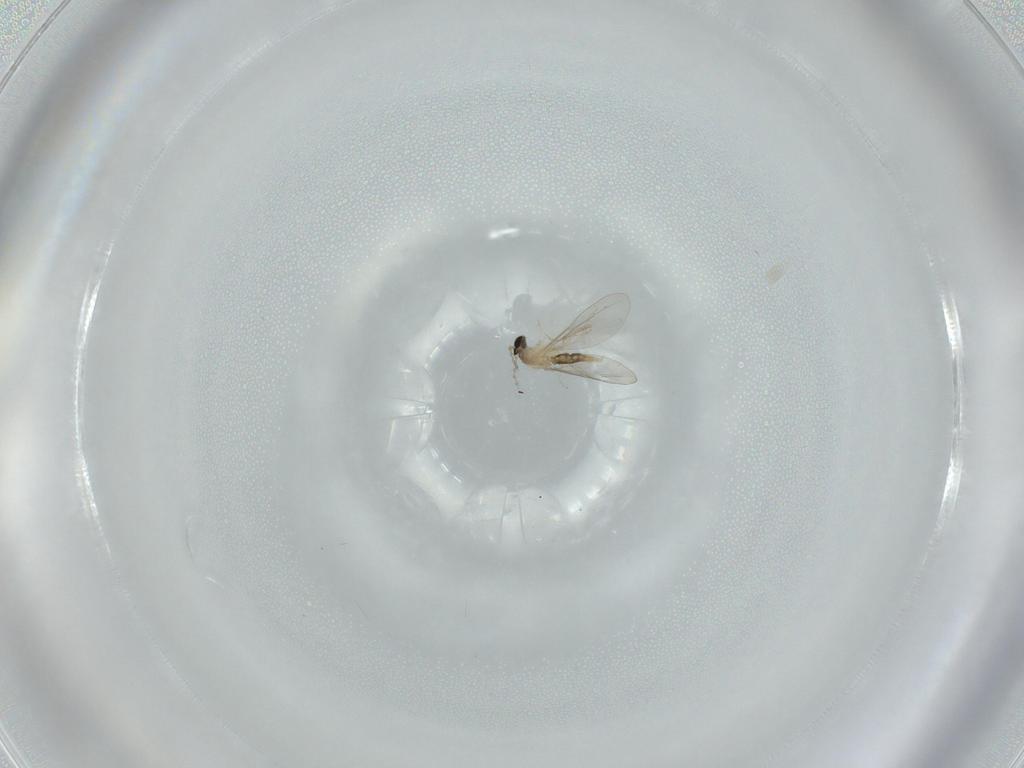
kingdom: Animalia
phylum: Arthropoda
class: Insecta
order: Diptera
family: Cecidomyiidae
